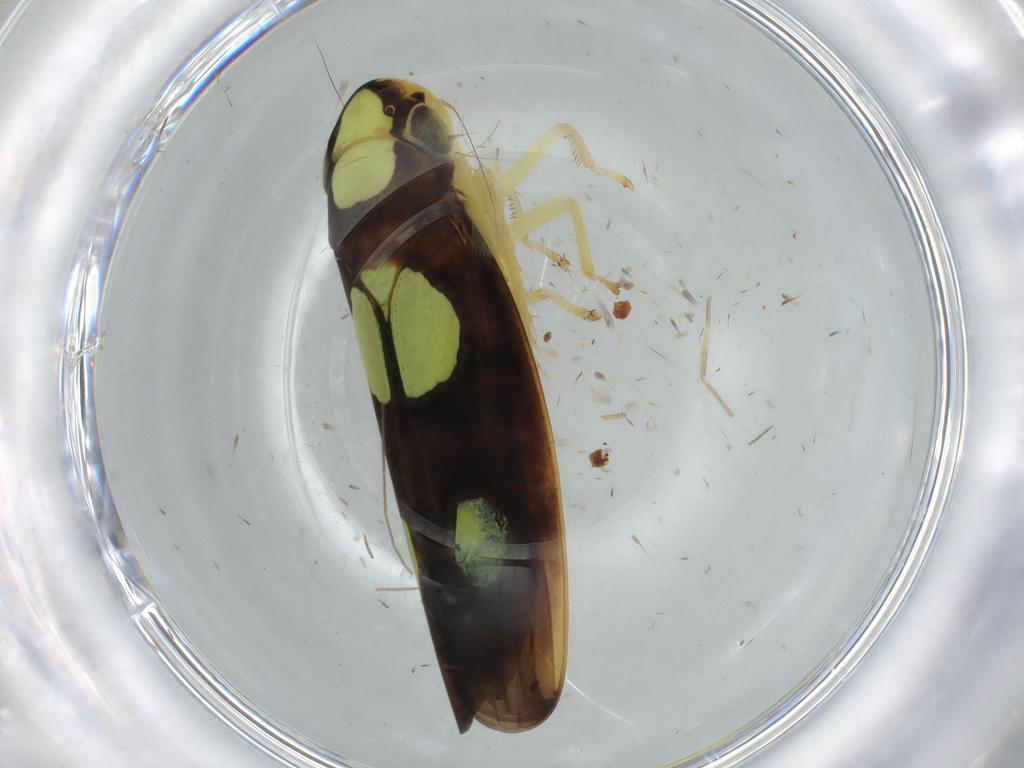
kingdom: Animalia
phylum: Arthropoda
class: Insecta
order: Hemiptera
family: Cicadellidae
